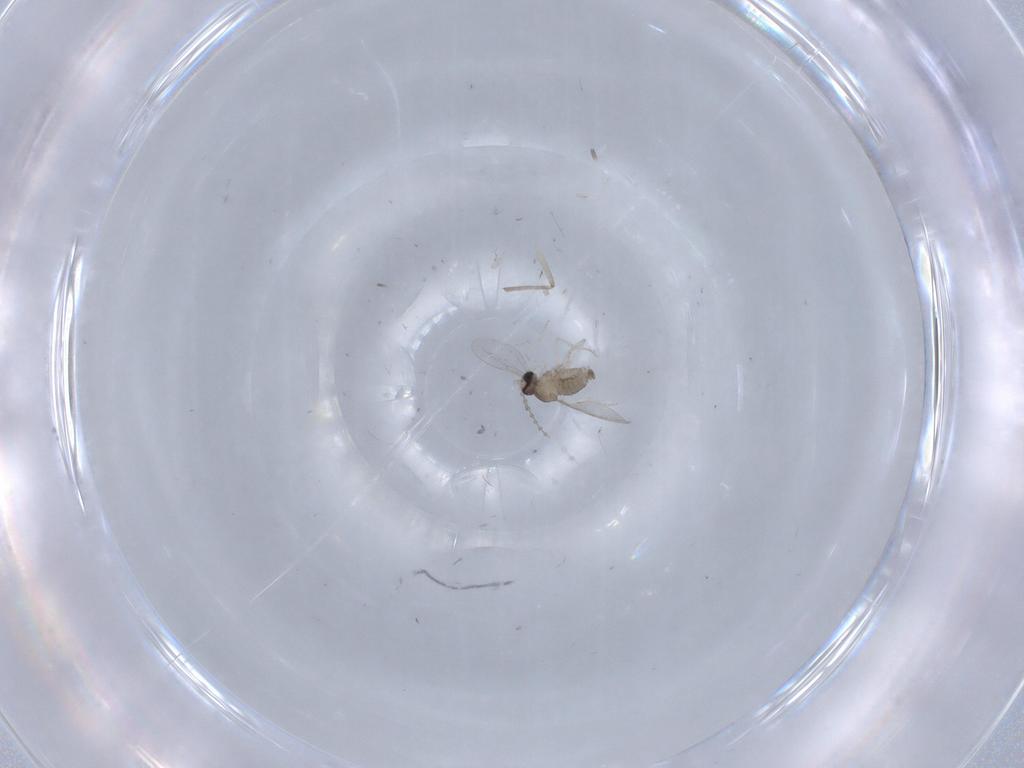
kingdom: Animalia
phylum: Arthropoda
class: Insecta
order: Diptera
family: Cecidomyiidae
